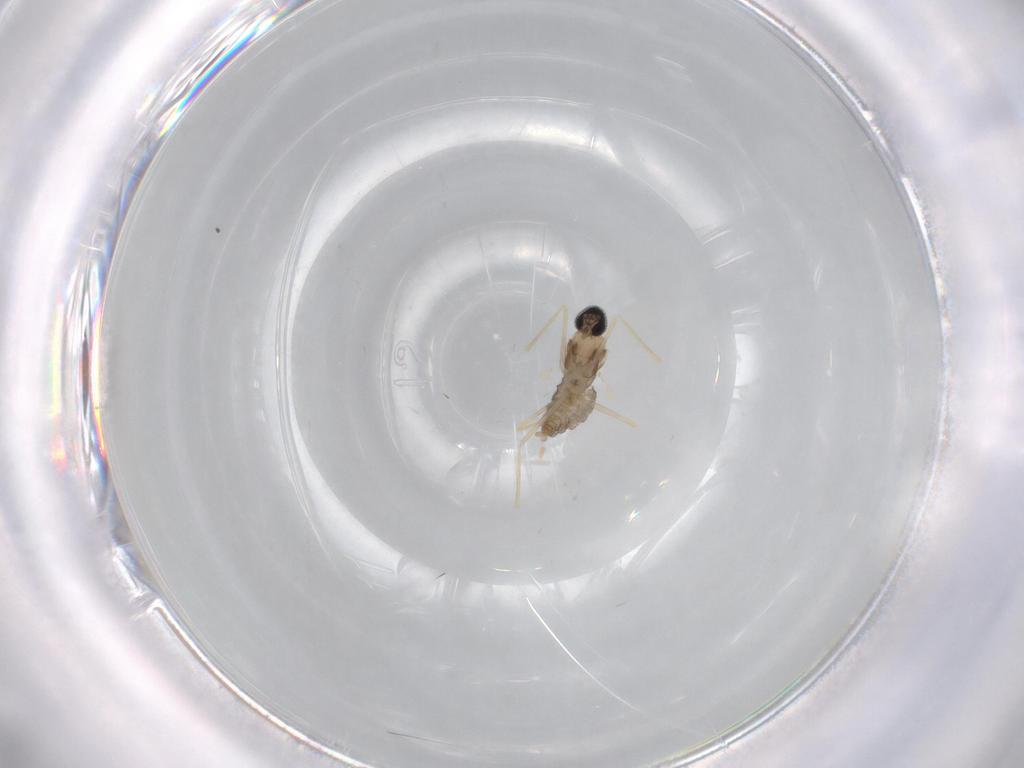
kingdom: Animalia
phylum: Arthropoda
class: Insecta
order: Diptera
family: Cecidomyiidae
